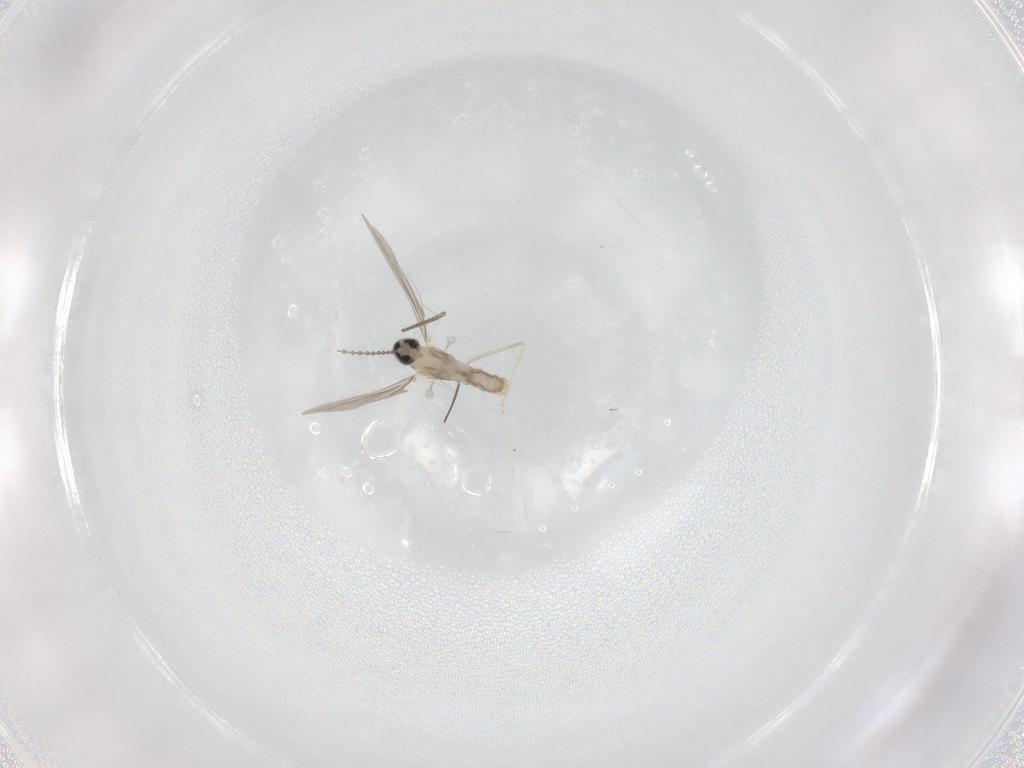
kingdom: Animalia
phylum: Arthropoda
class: Insecta
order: Diptera
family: Cecidomyiidae
